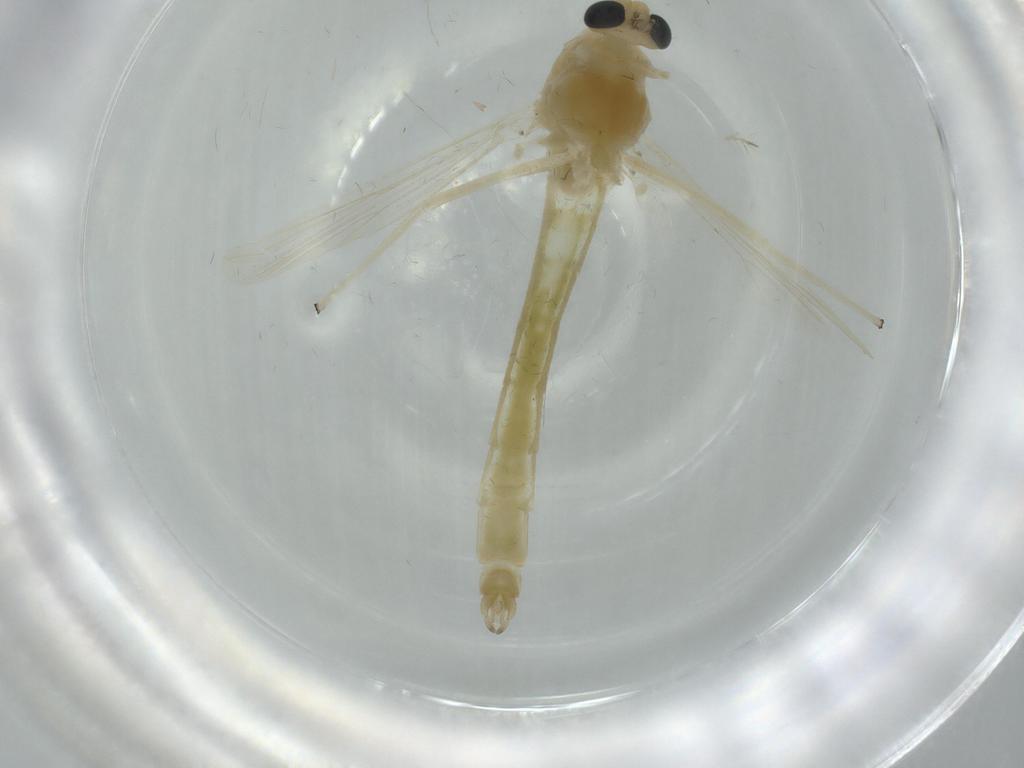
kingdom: Animalia
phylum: Arthropoda
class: Insecta
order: Diptera
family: Chironomidae
